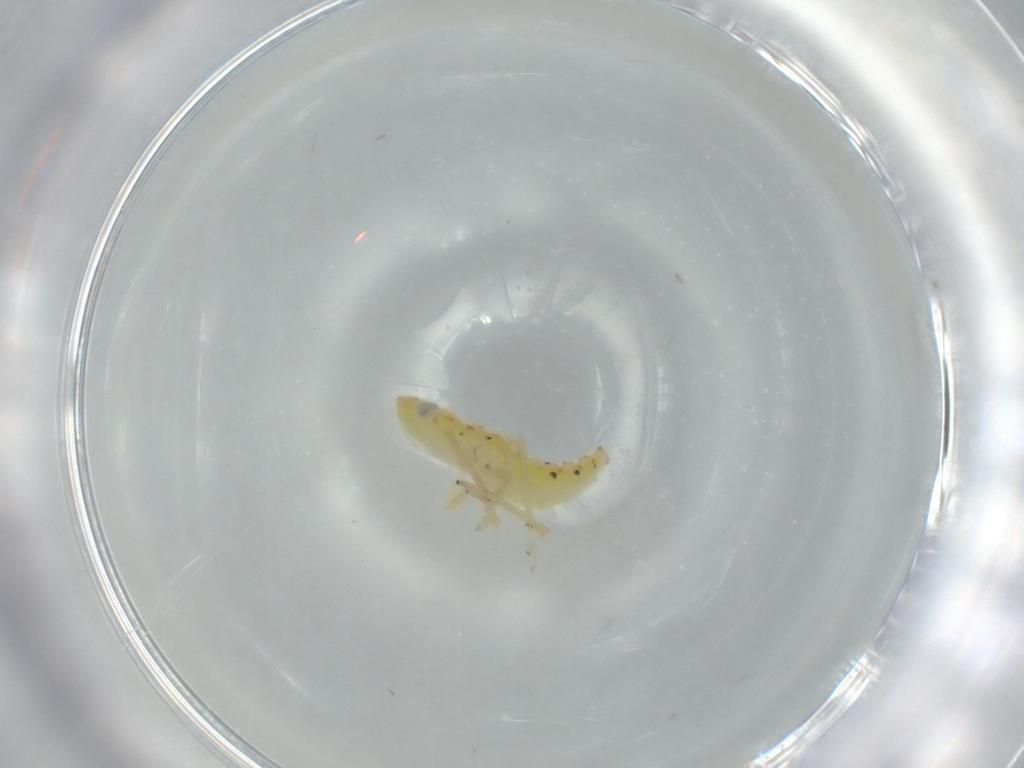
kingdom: Animalia
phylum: Arthropoda
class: Insecta
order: Hemiptera
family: Tropiduchidae
